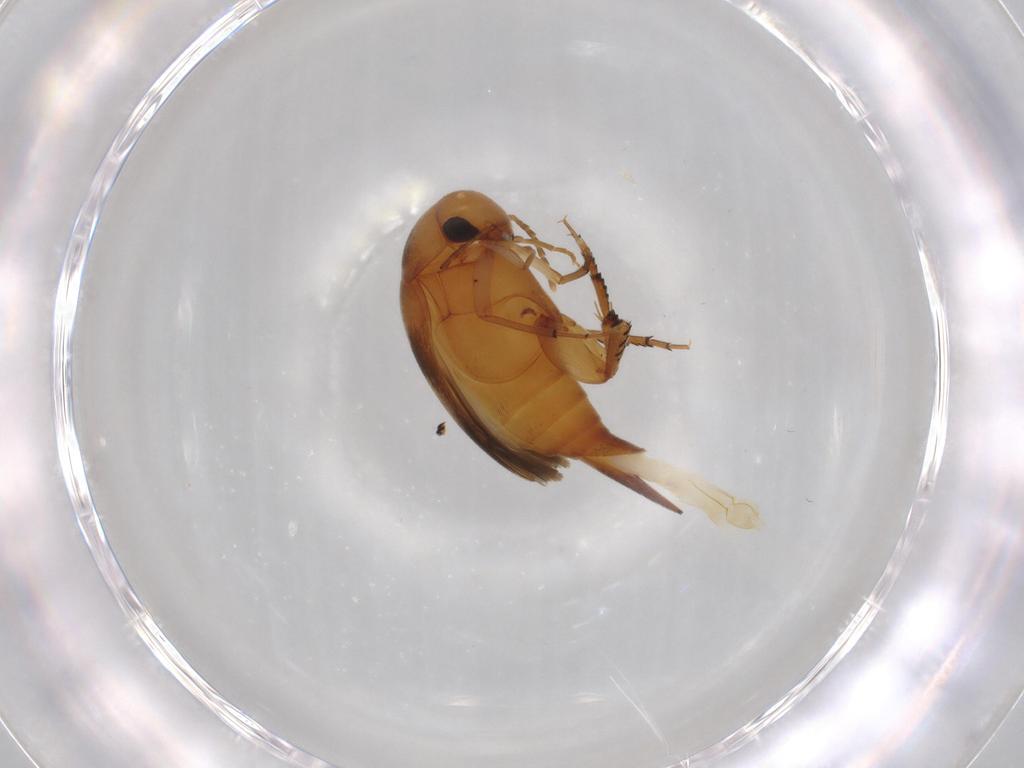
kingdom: Animalia
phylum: Arthropoda
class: Insecta
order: Coleoptera
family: Mordellidae
